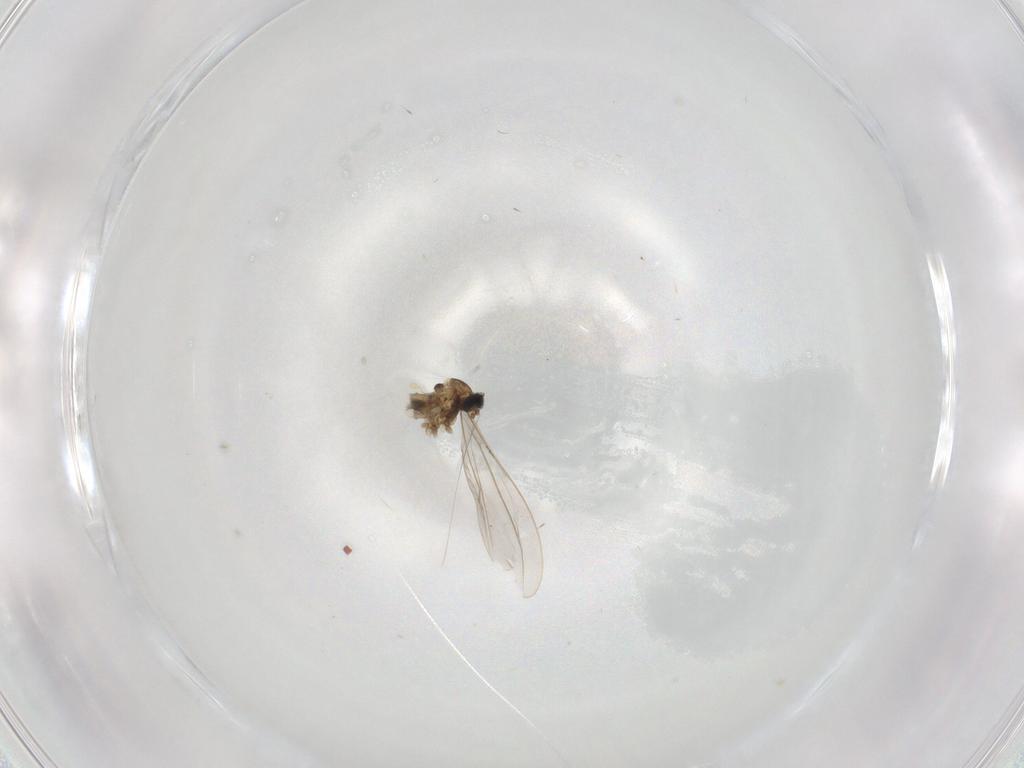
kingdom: Animalia
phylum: Arthropoda
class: Insecta
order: Diptera
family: Cecidomyiidae
